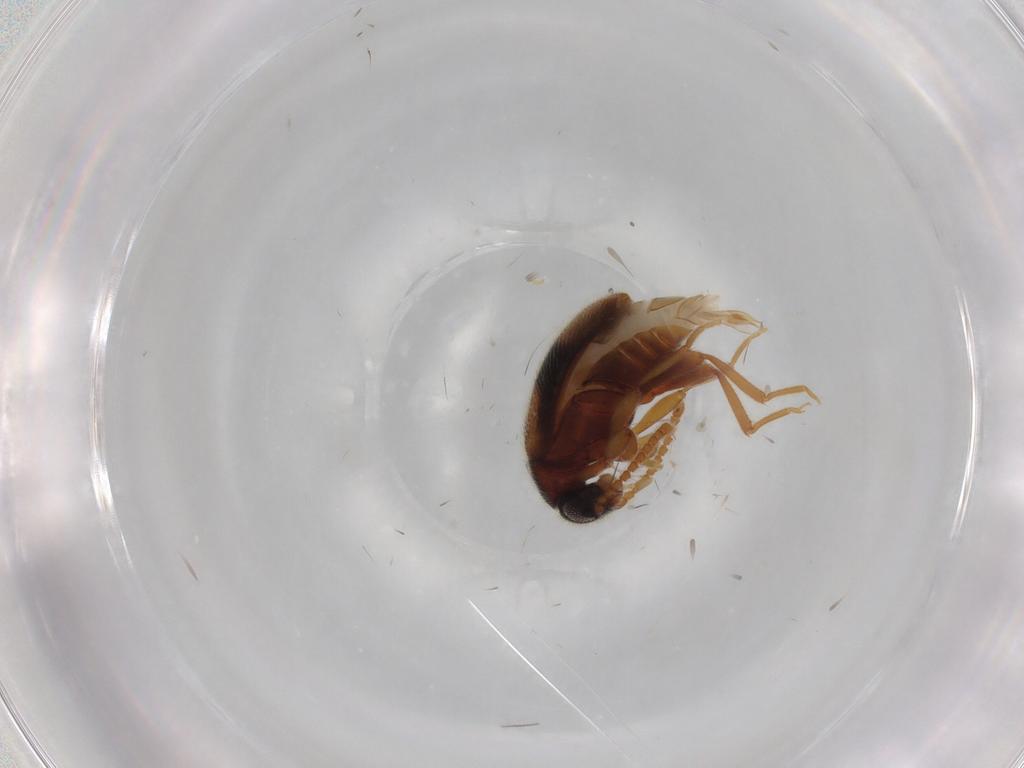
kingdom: Animalia
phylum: Arthropoda
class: Insecta
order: Coleoptera
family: Aderidae
